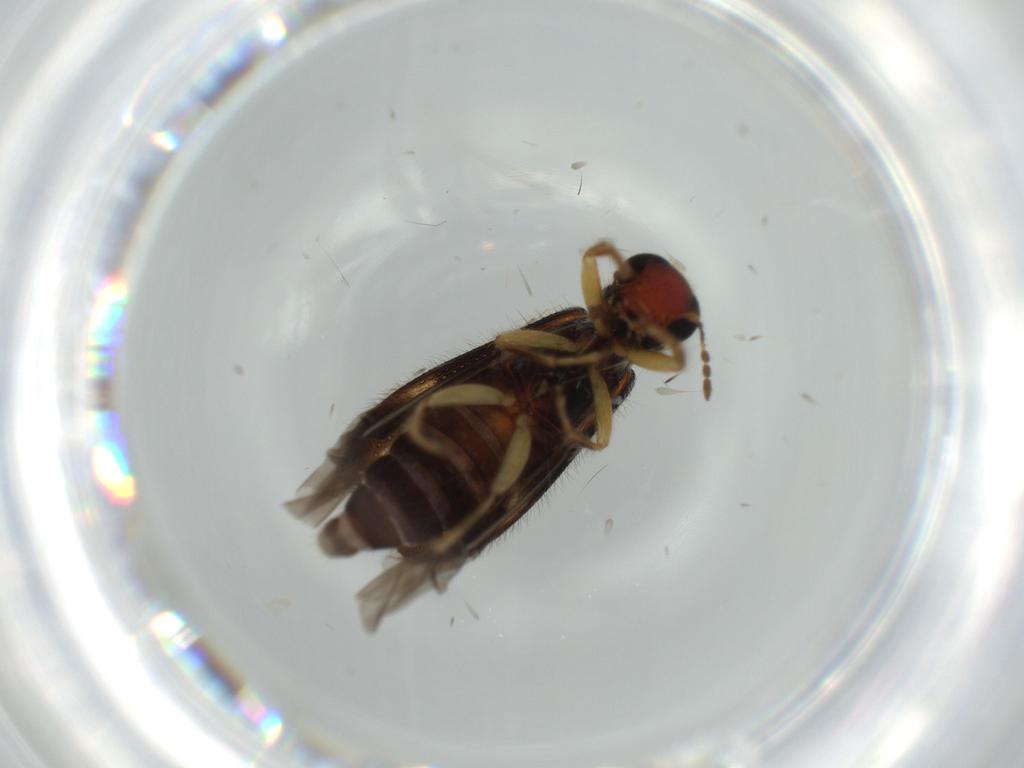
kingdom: Animalia
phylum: Arthropoda
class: Insecta
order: Coleoptera
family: Cleridae
